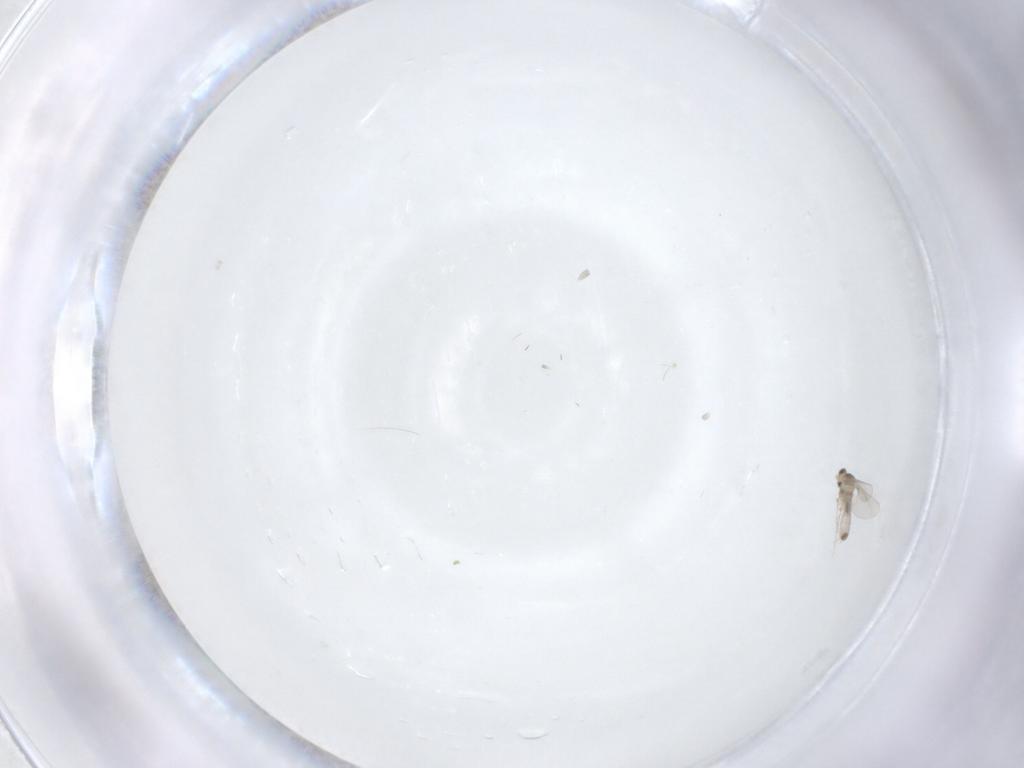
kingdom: Animalia
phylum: Arthropoda
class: Insecta
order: Diptera
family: Cecidomyiidae
